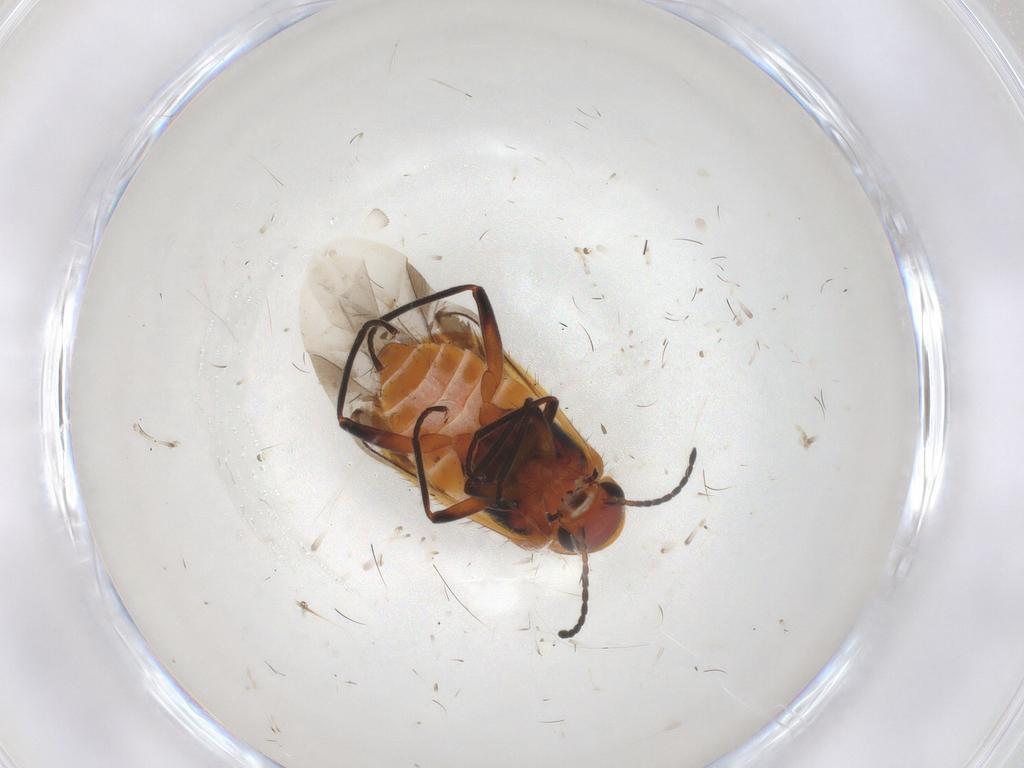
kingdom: Animalia
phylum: Arthropoda
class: Insecta
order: Coleoptera
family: Melyridae
